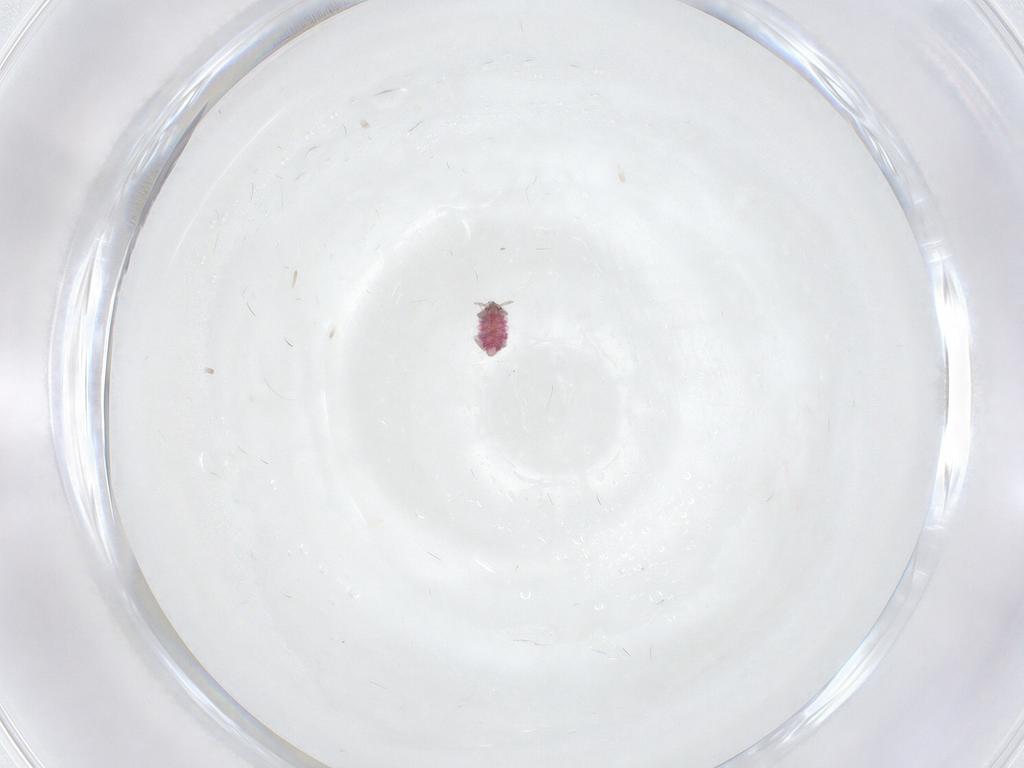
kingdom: Animalia
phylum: Arthropoda
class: Insecta
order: Neuroptera
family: Coniopterygidae
